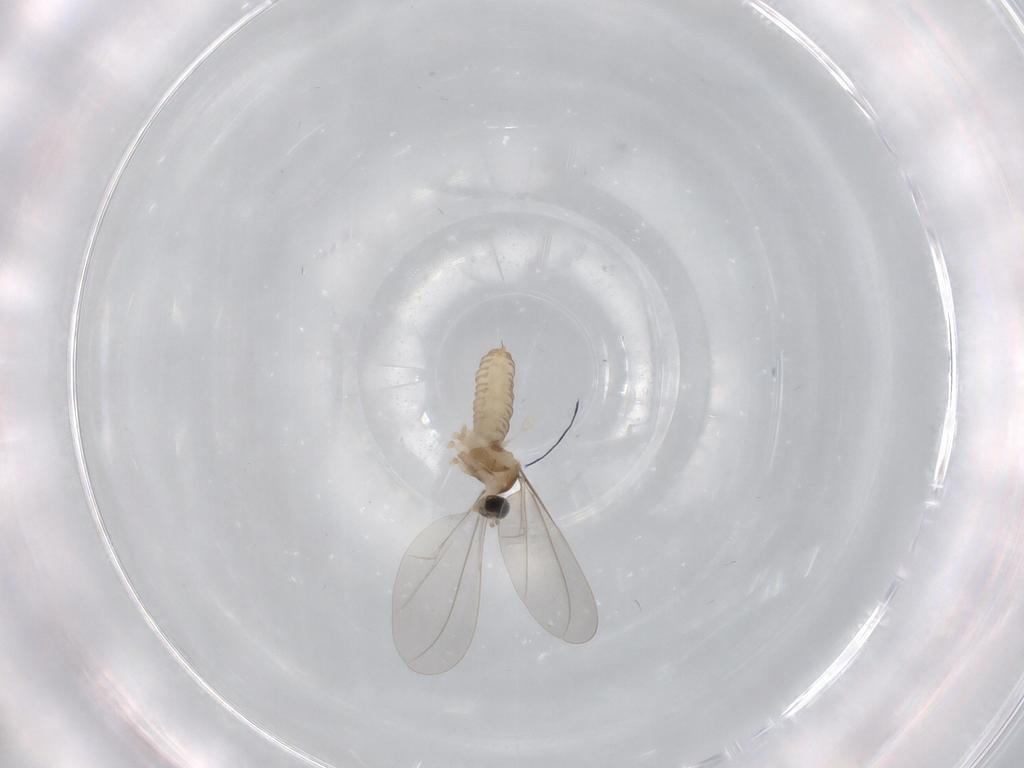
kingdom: Animalia
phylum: Arthropoda
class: Insecta
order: Diptera
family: Cecidomyiidae
